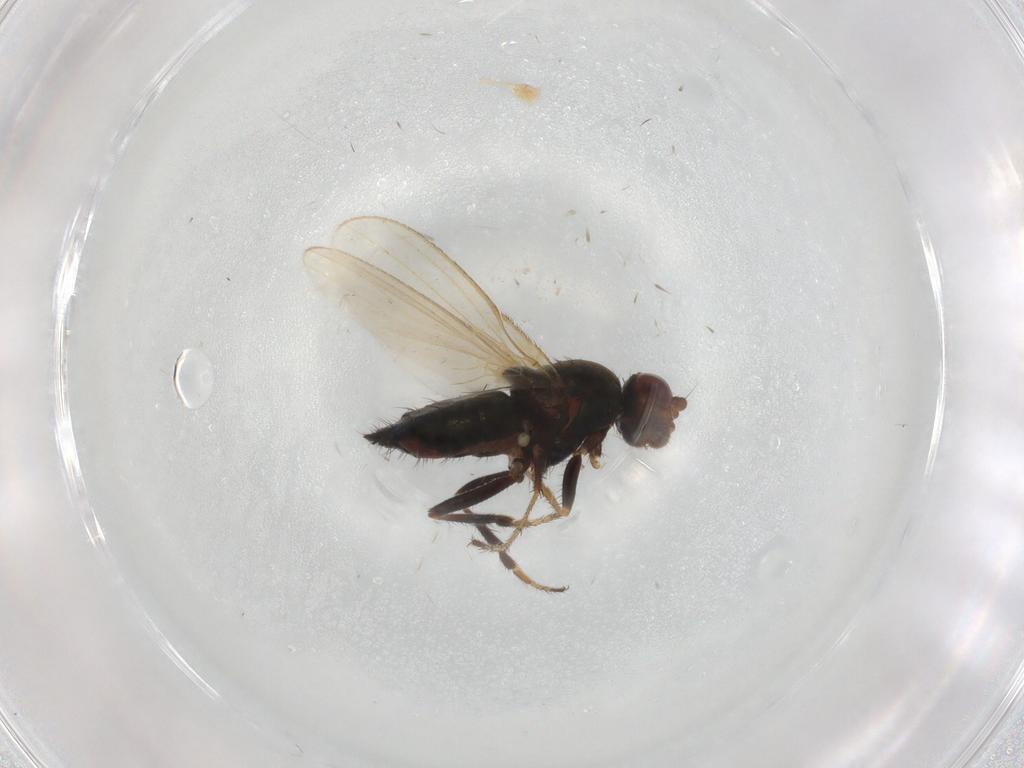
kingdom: Animalia
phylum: Arthropoda
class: Insecta
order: Diptera
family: Sphaeroceridae
